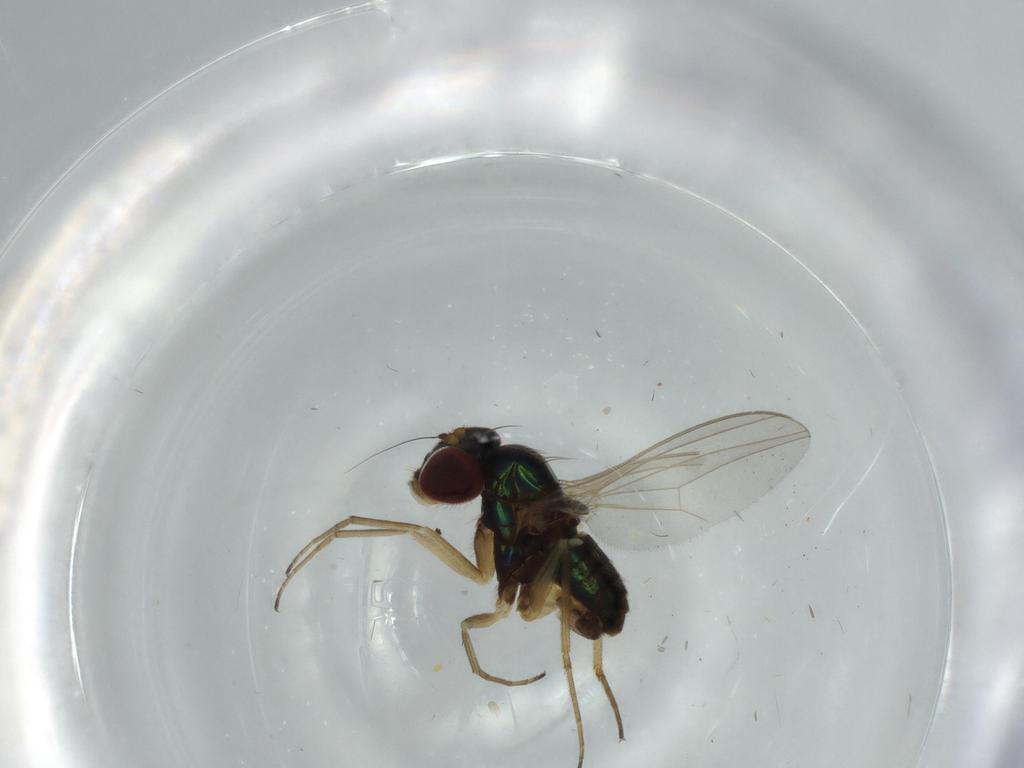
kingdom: Animalia
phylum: Arthropoda
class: Insecta
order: Diptera
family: Dolichopodidae
